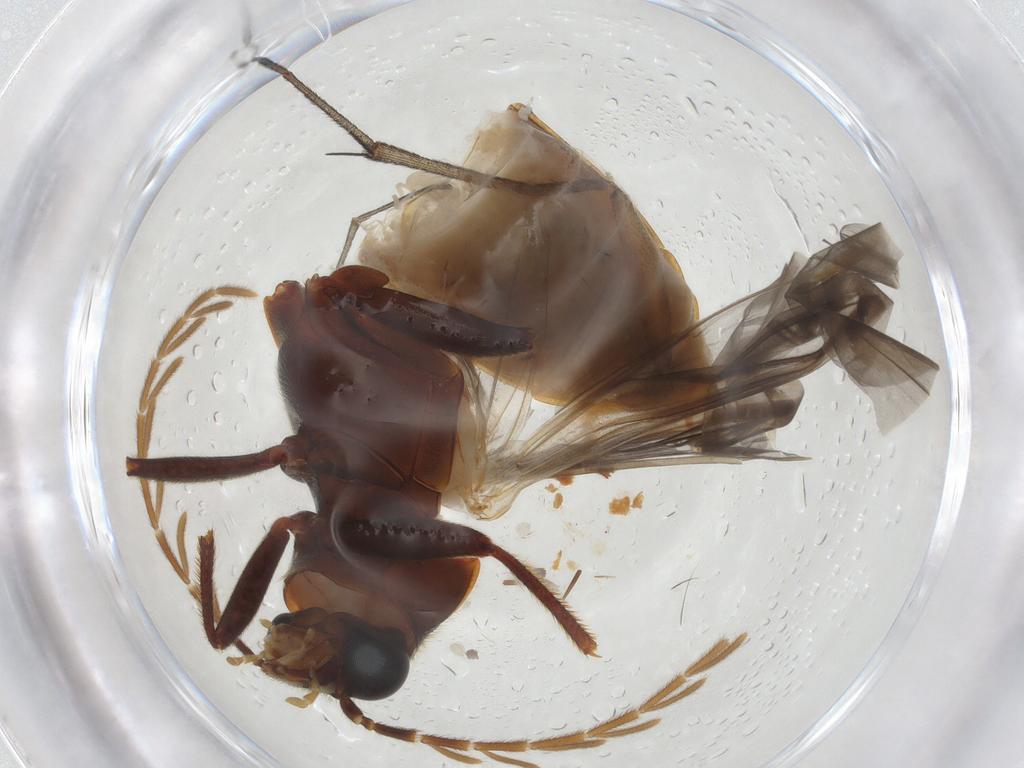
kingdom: Animalia
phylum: Arthropoda
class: Insecta
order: Coleoptera
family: Ptilodactylidae
